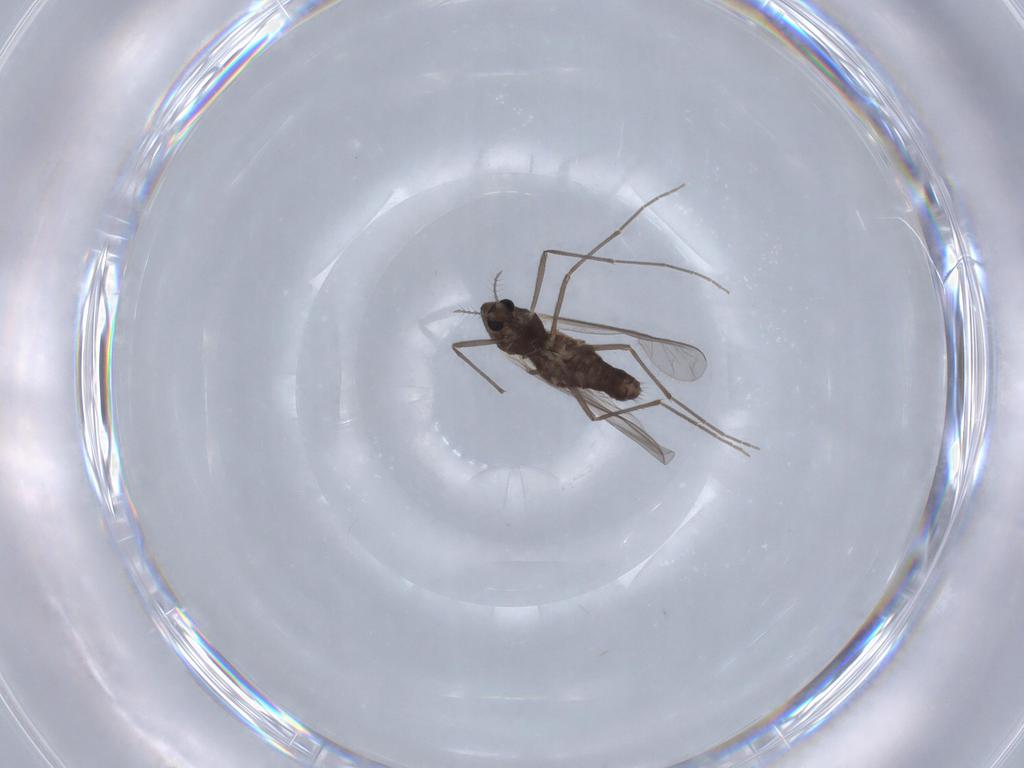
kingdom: Animalia
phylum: Arthropoda
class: Insecta
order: Diptera
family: Chironomidae
